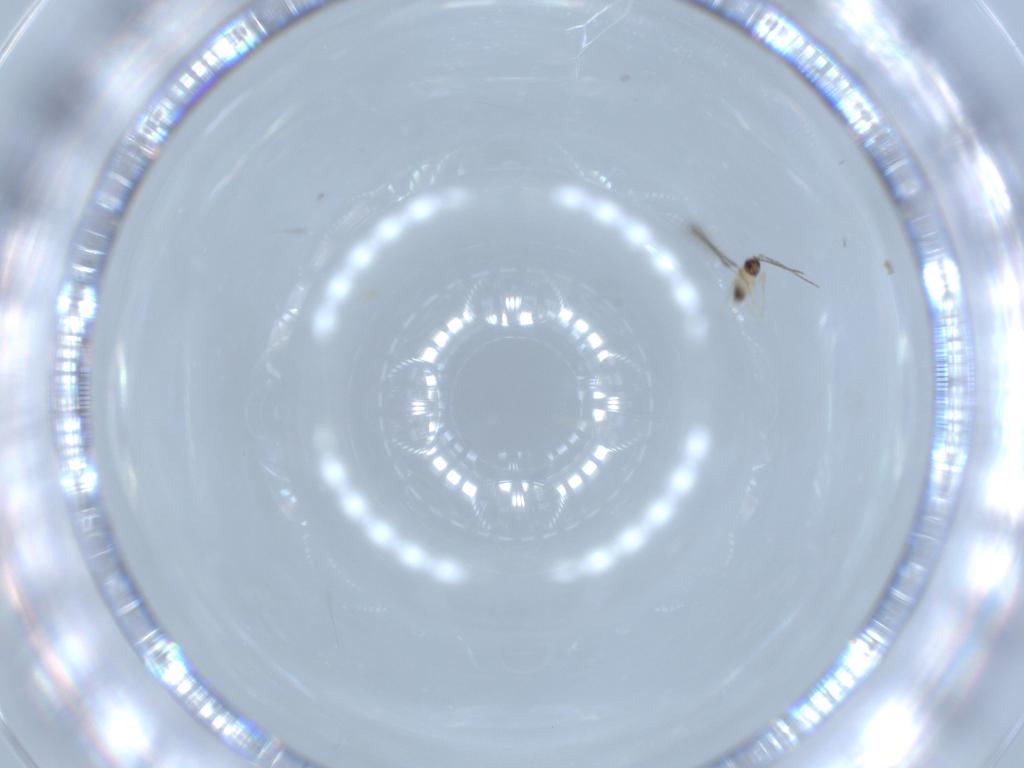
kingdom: Animalia
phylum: Arthropoda
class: Insecta
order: Hymenoptera
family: Mymaridae
